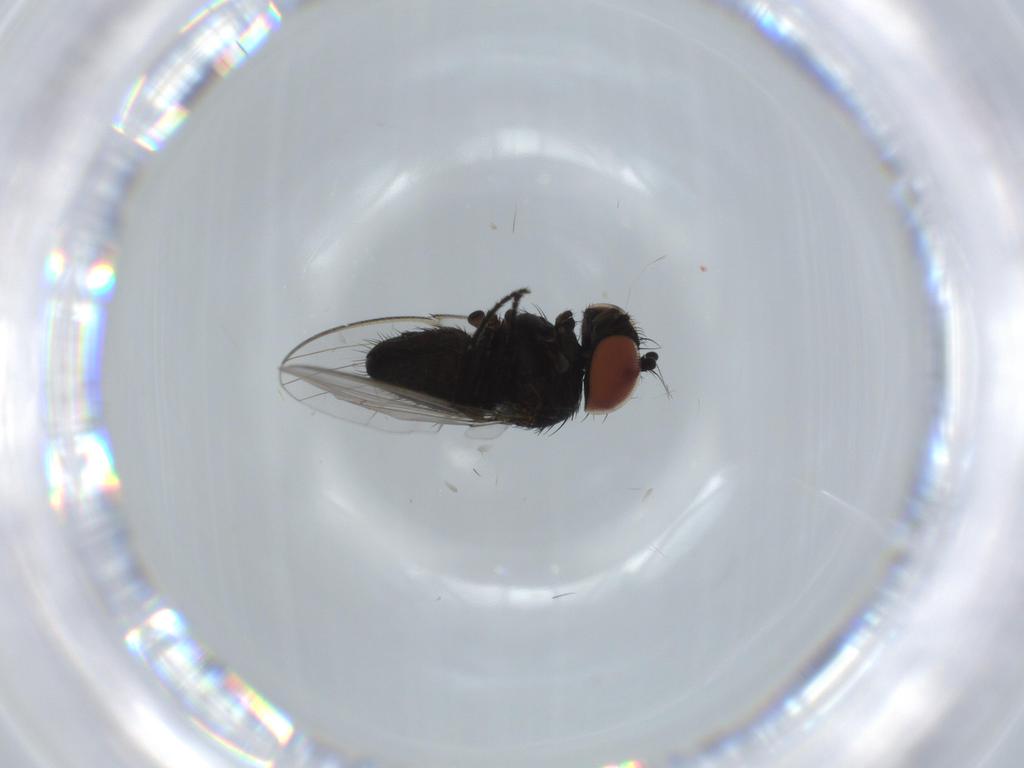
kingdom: Animalia
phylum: Arthropoda
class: Insecta
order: Diptera
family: Milichiidae
